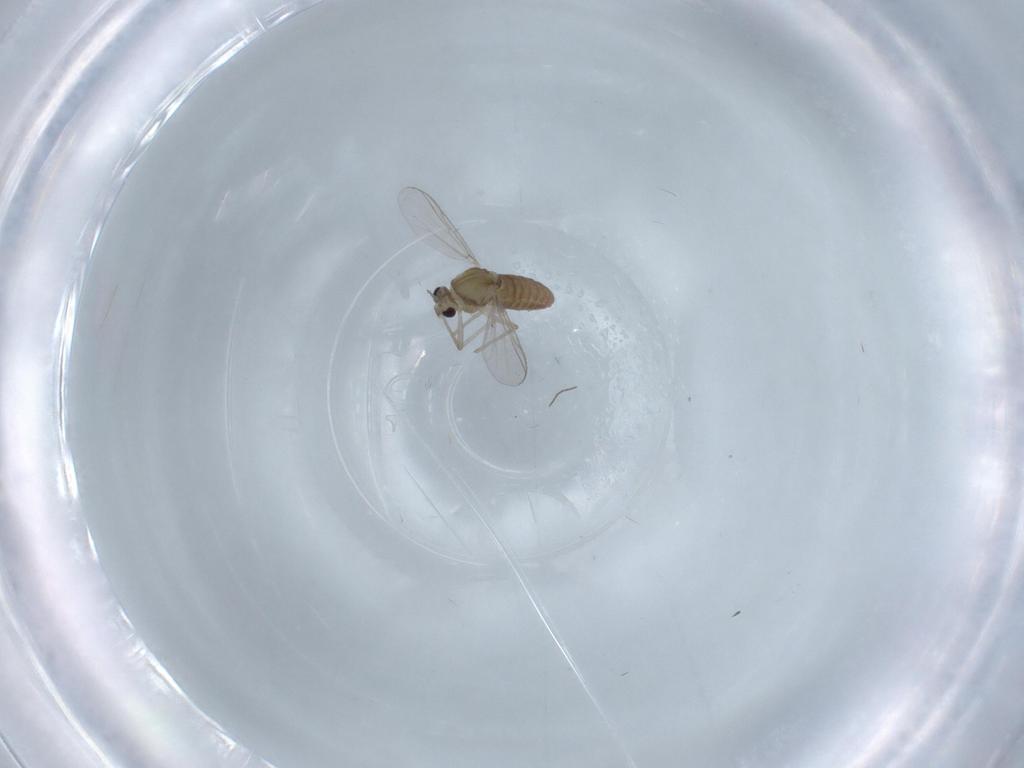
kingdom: Animalia
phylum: Arthropoda
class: Insecta
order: Diptera
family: Chironomidae
